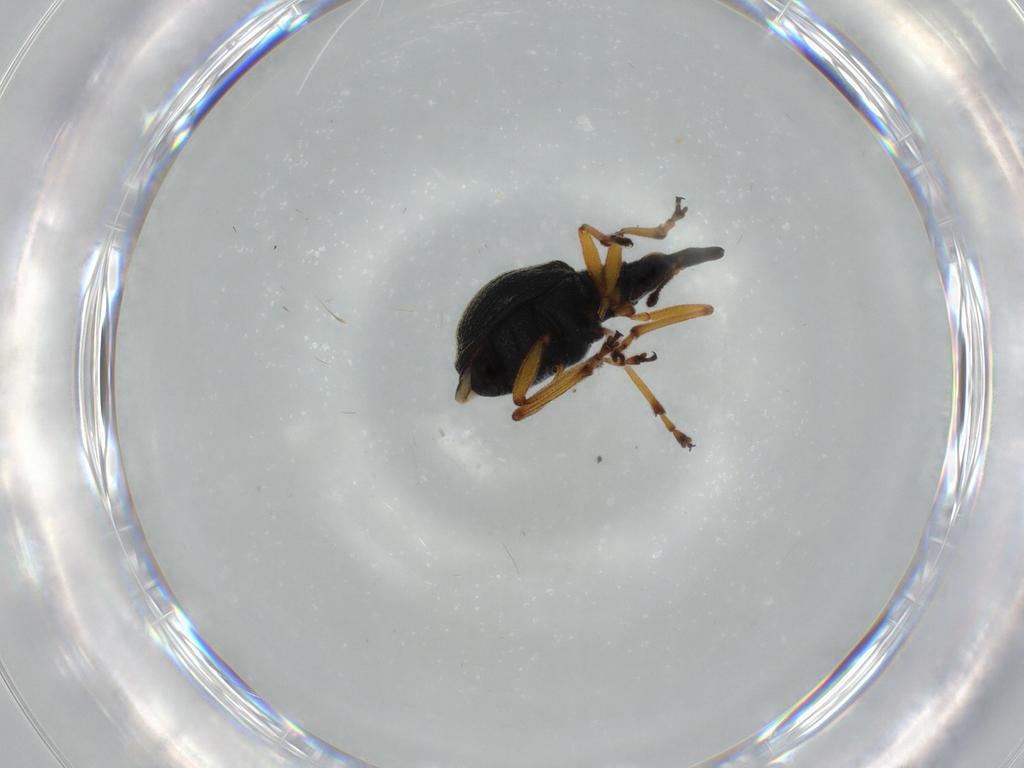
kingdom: Animalia
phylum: Arthropoda
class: Insecta
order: Coleoptera
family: Brentidae
